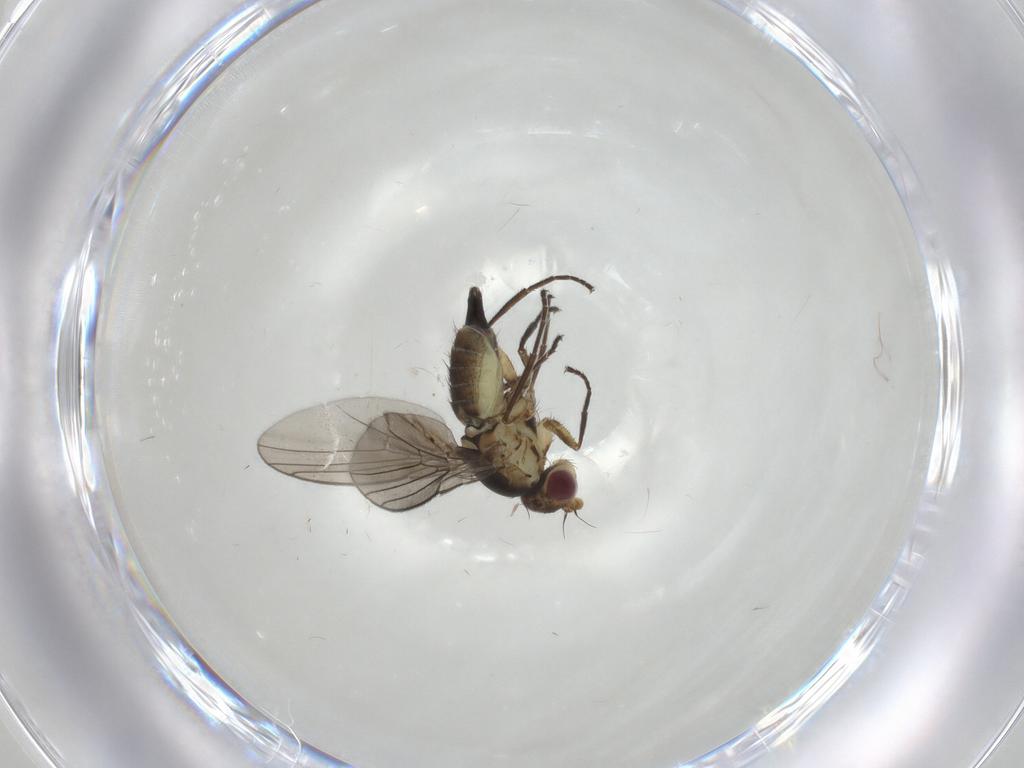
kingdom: Animalia
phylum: Arthropoda
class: Insecta
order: Diptera
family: Agromyzidae
